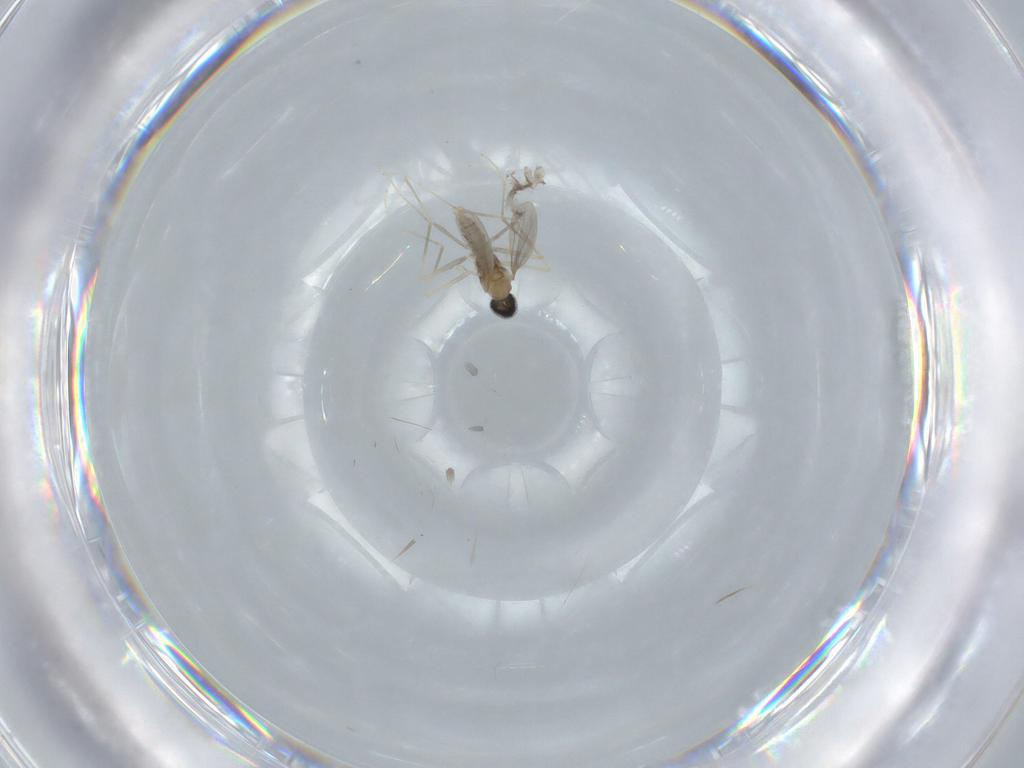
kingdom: Animalia
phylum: Arthropoda
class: Insecta
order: Diptera
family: Cecidomyiidae
